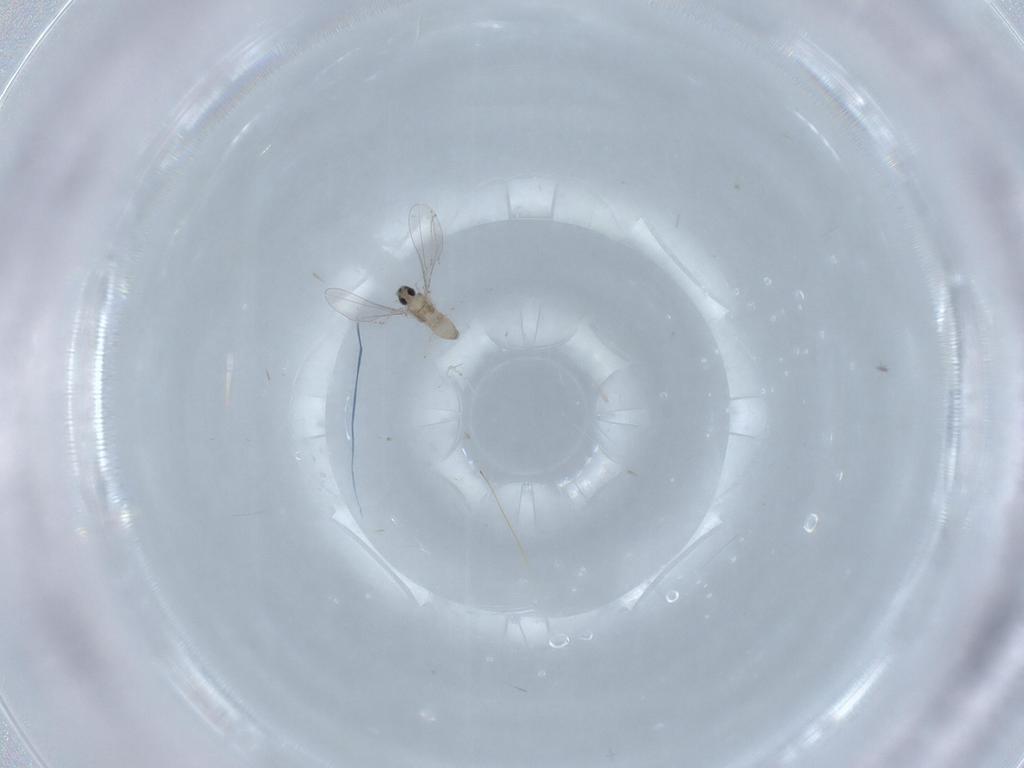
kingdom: Animalia
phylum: Arthropoda
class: Insecta
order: Diptera
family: Cecidomyiidae
